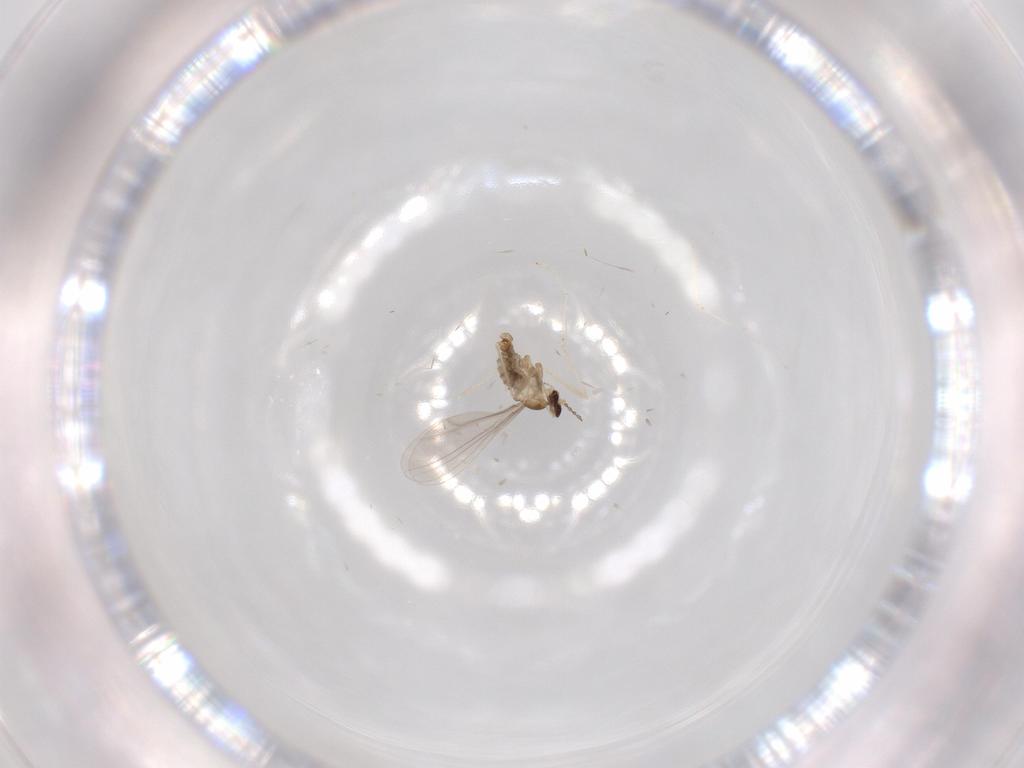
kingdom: Animalia
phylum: Arthropoda
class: Insecta
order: Diptera
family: Cecidomyiidae
